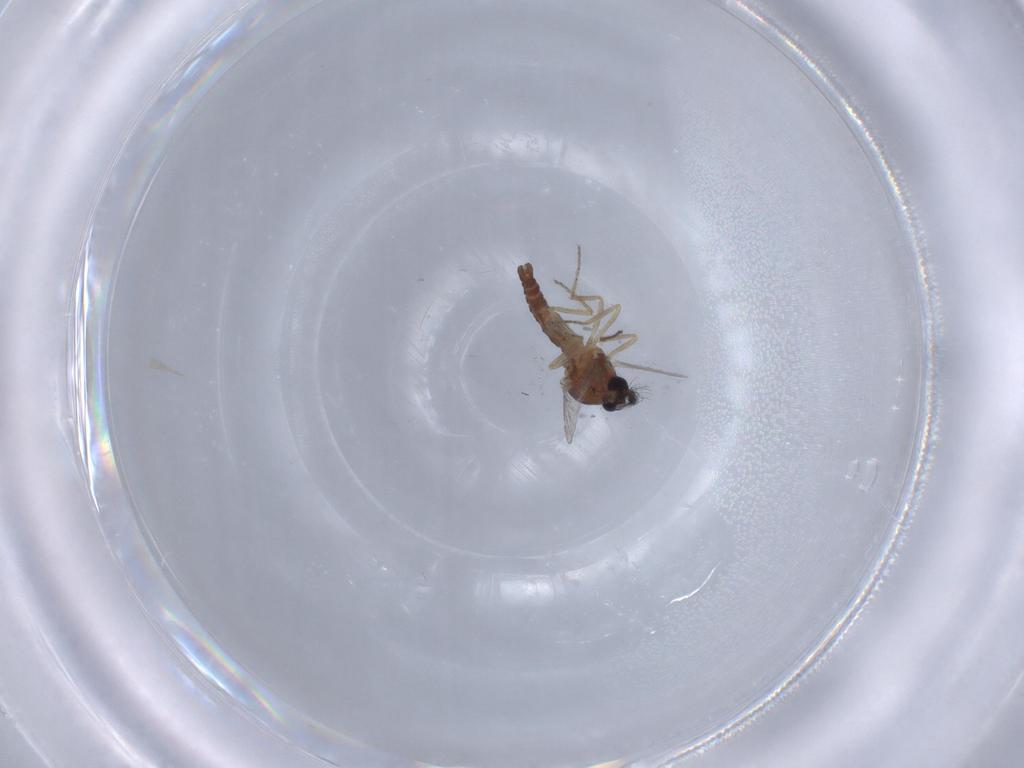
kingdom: Animalia
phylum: Arthropoda
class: Insecta
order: Diptera
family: Ceratopogonidae
